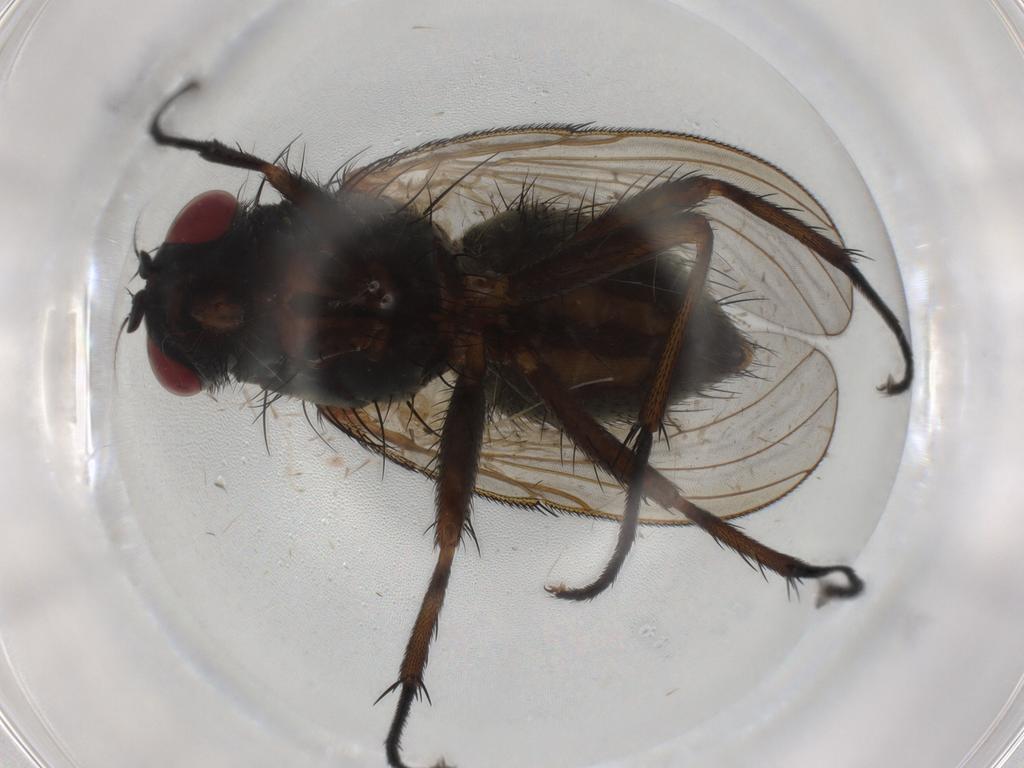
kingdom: Animalia
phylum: Arthropoda
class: Insecta
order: Diptera
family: Muscidae
